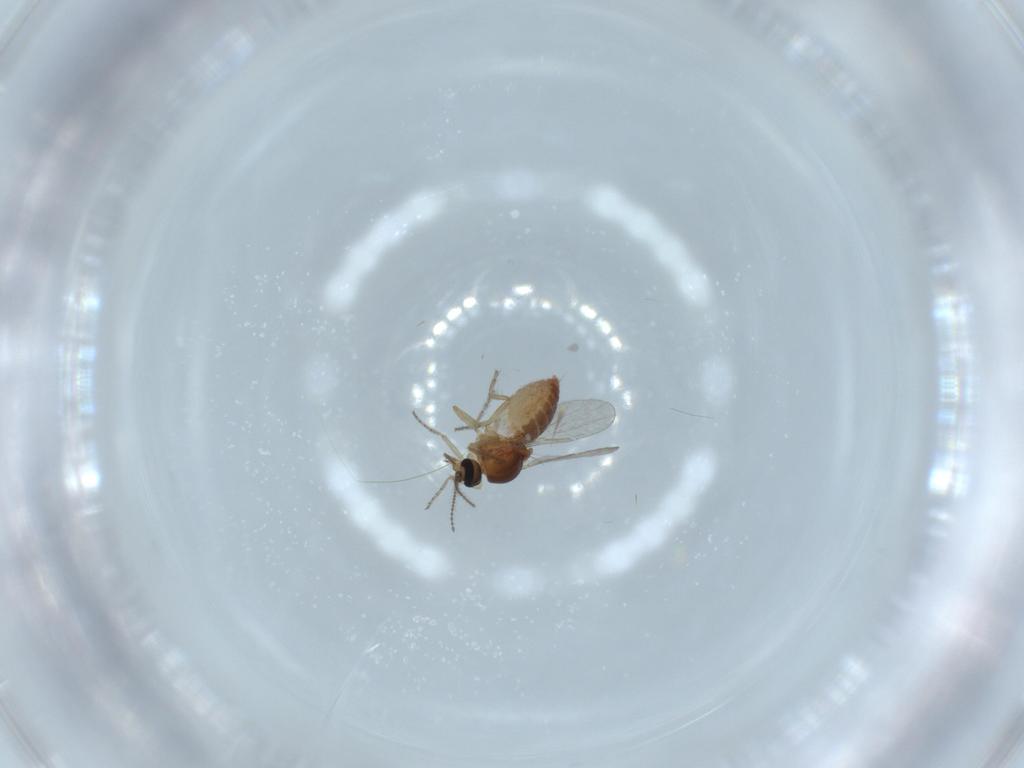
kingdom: Animalia
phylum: Arthropoda
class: Insecta
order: Diptera
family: Ceratopogonidae
